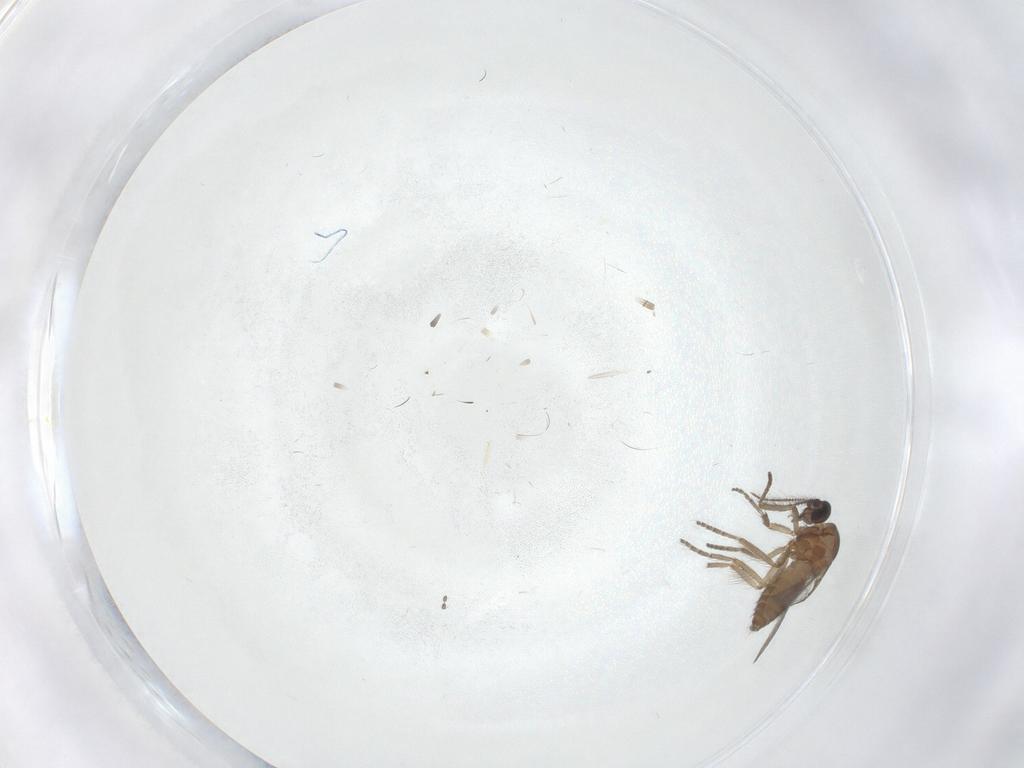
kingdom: Animalia
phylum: Arthropoda
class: Insecta
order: Diptera
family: Ceratopogonidae
